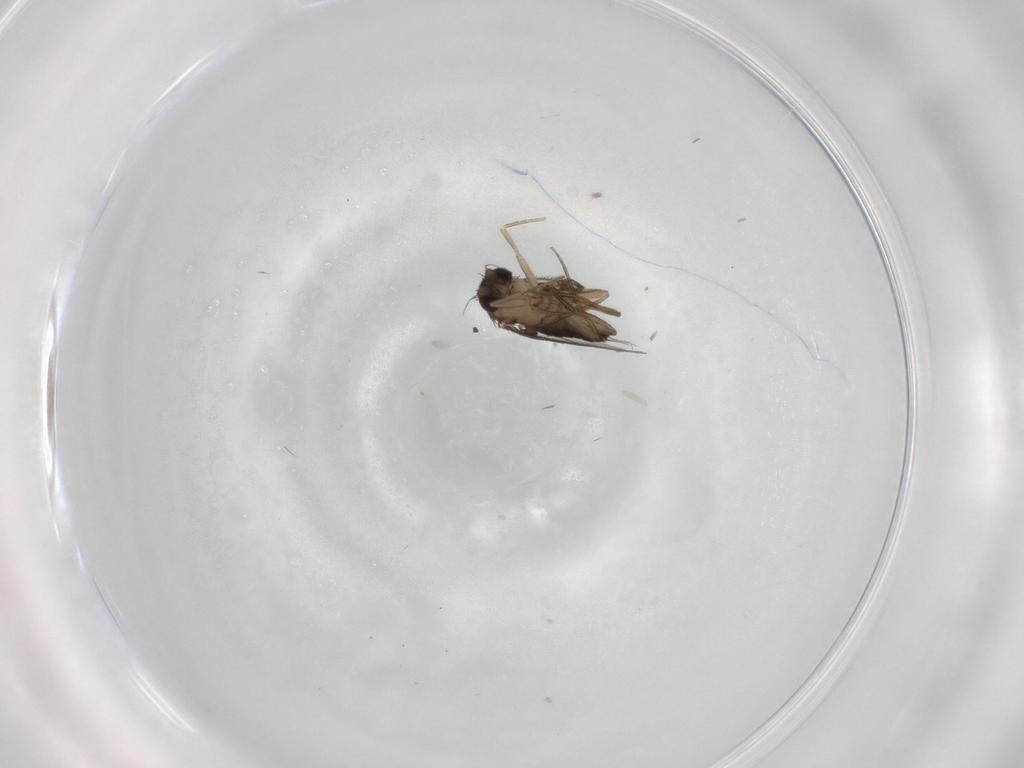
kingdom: Animalia
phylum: Arthropoda
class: Insecta
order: Diptera
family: Phoridae
